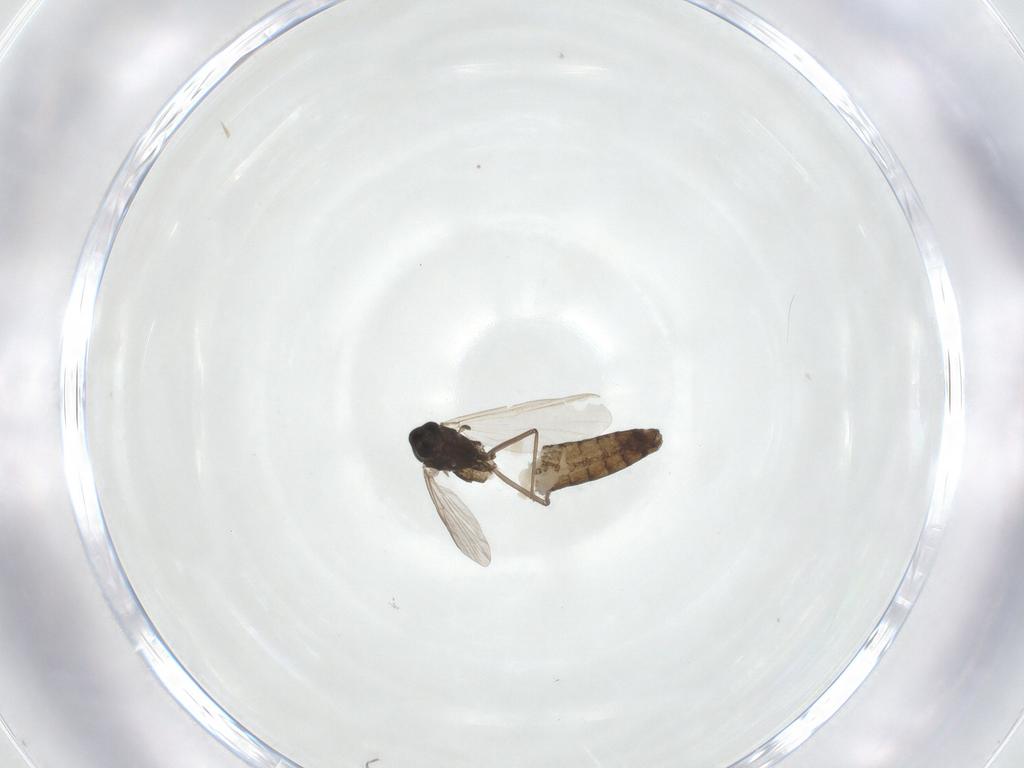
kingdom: Animalia
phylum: Arthropoda
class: Insecta
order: Diptera
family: Chironomidae
